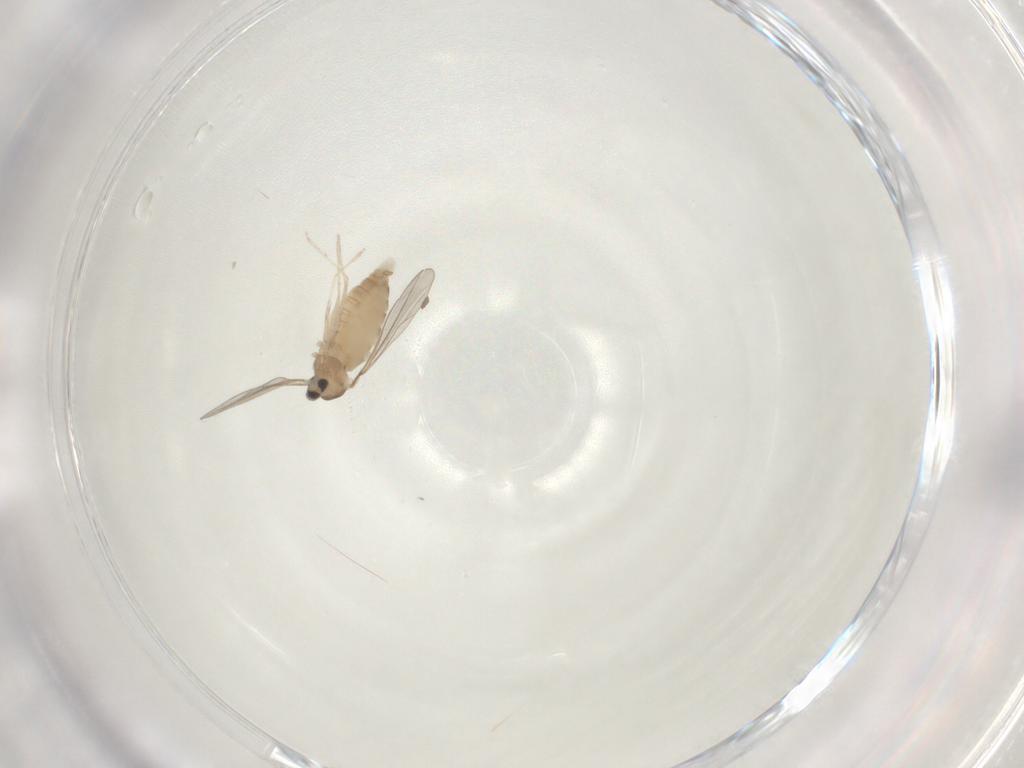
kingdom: Animalia
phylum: Arthropoda
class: Insecta
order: Diptera
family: Cecidomyiidae
